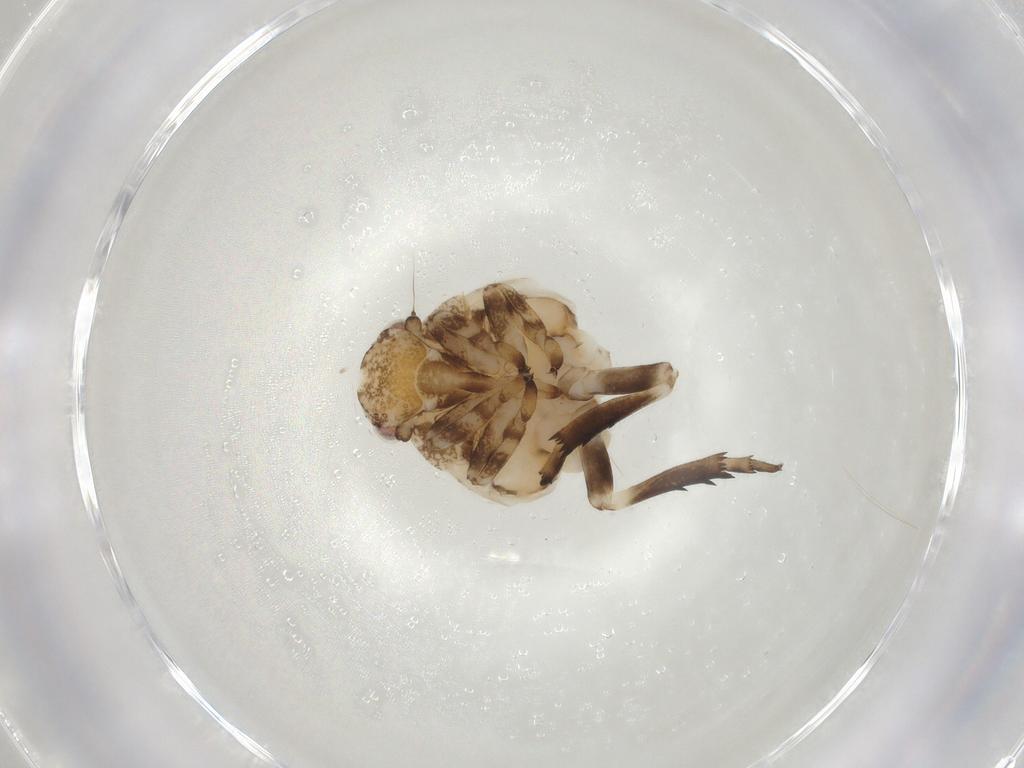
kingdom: Animalia
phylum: Arthropoda
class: Insecta
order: Hemiptera
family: Ricaniidae
